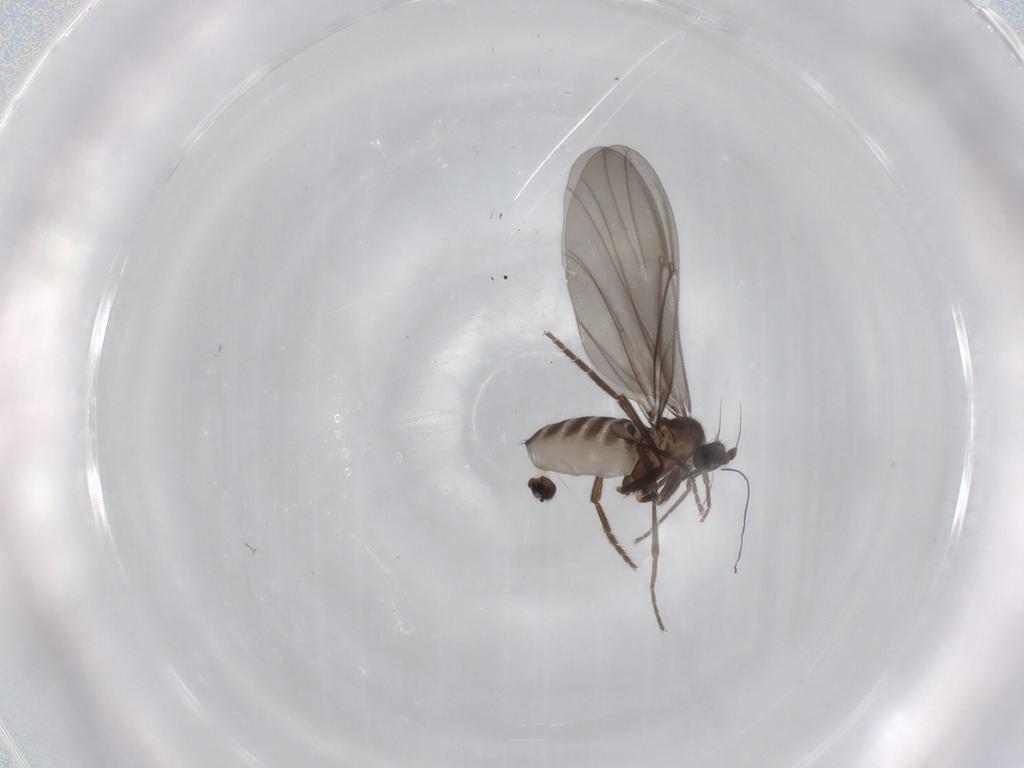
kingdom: Animalia
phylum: Arthropoda
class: Insecta
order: Diptera
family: Phoridae
